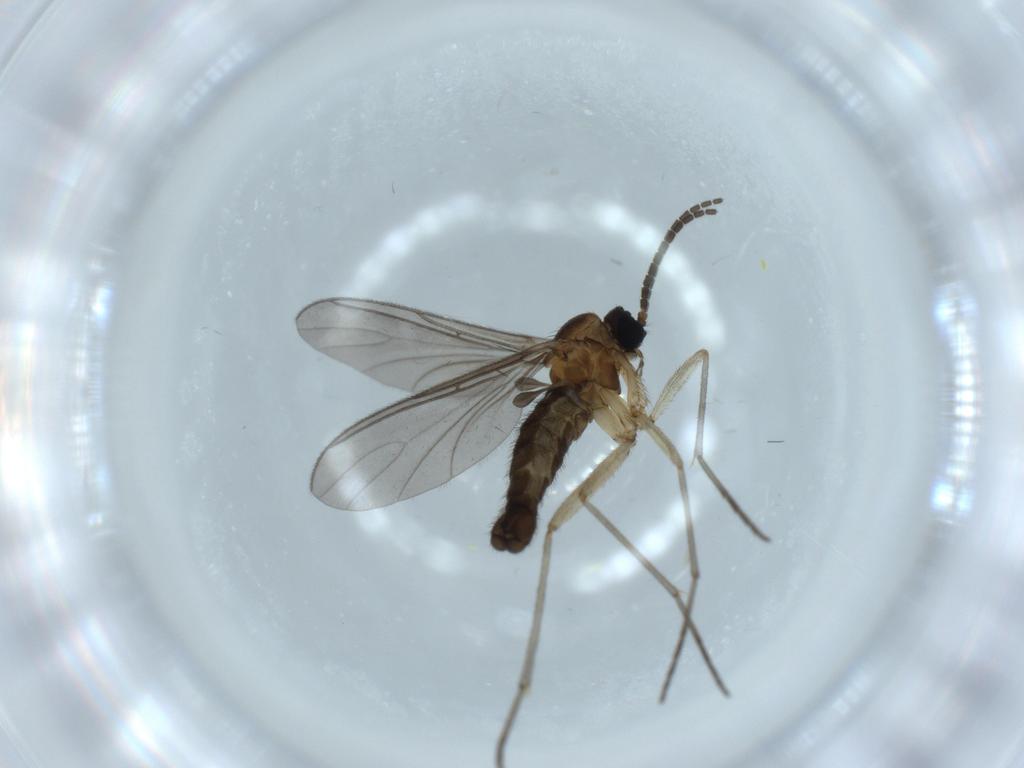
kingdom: Animalia
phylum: Arthropoda
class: Insecta
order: Diptera
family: Sciaridae
